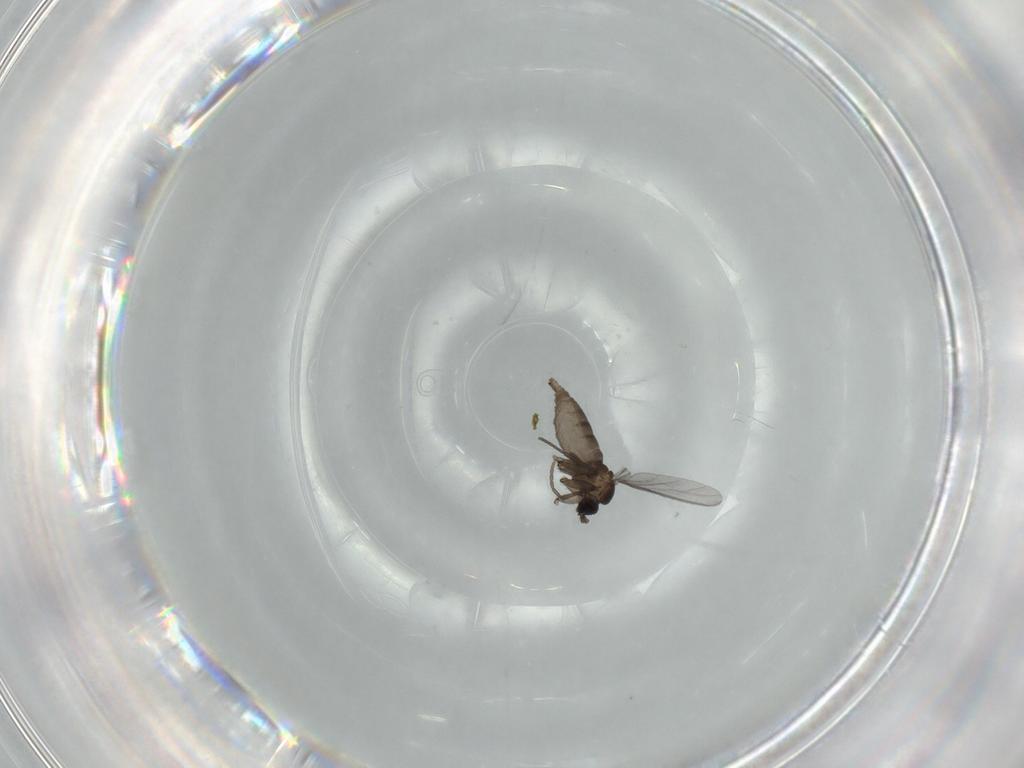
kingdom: Animalia
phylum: Arthropoda
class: Insecta
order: Diptera
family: Sciaridae
